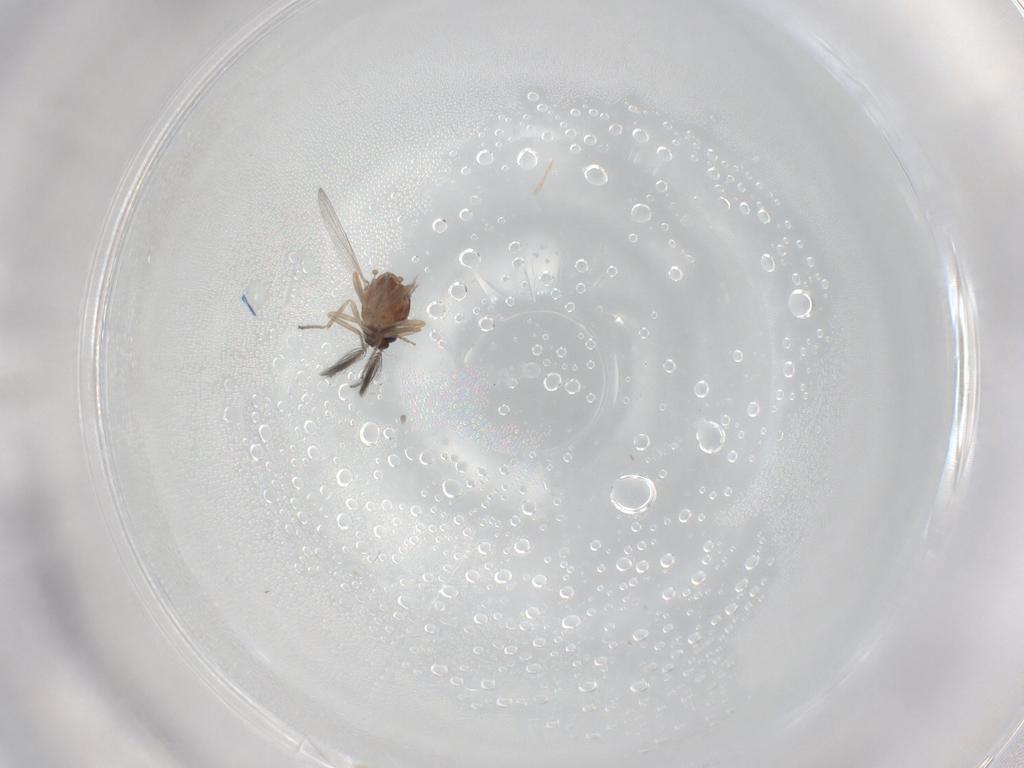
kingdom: Animalia
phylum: Arthropoda
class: Insecta
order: Diptera
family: Ceratopogonidae
